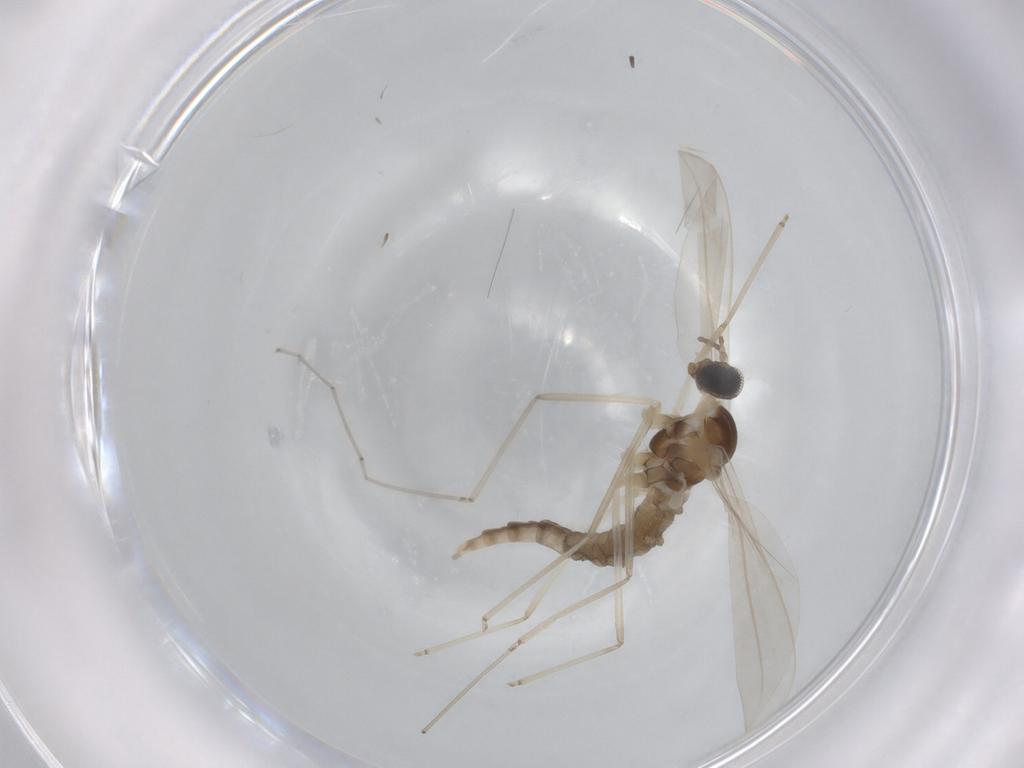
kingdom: Animalia
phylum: Arthropoda
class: Insecta
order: Diptera
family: Cecidomyiidae
